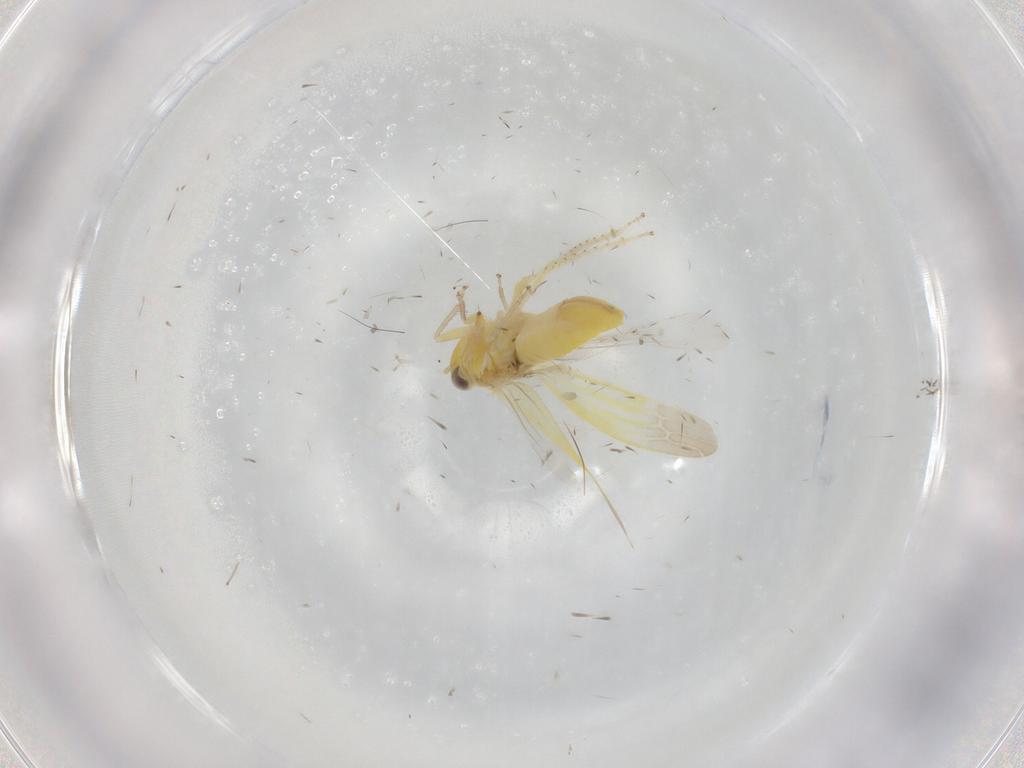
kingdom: Animalia
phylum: Arthropoda
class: Insecta
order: Hemiptera
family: Cicadellidae
